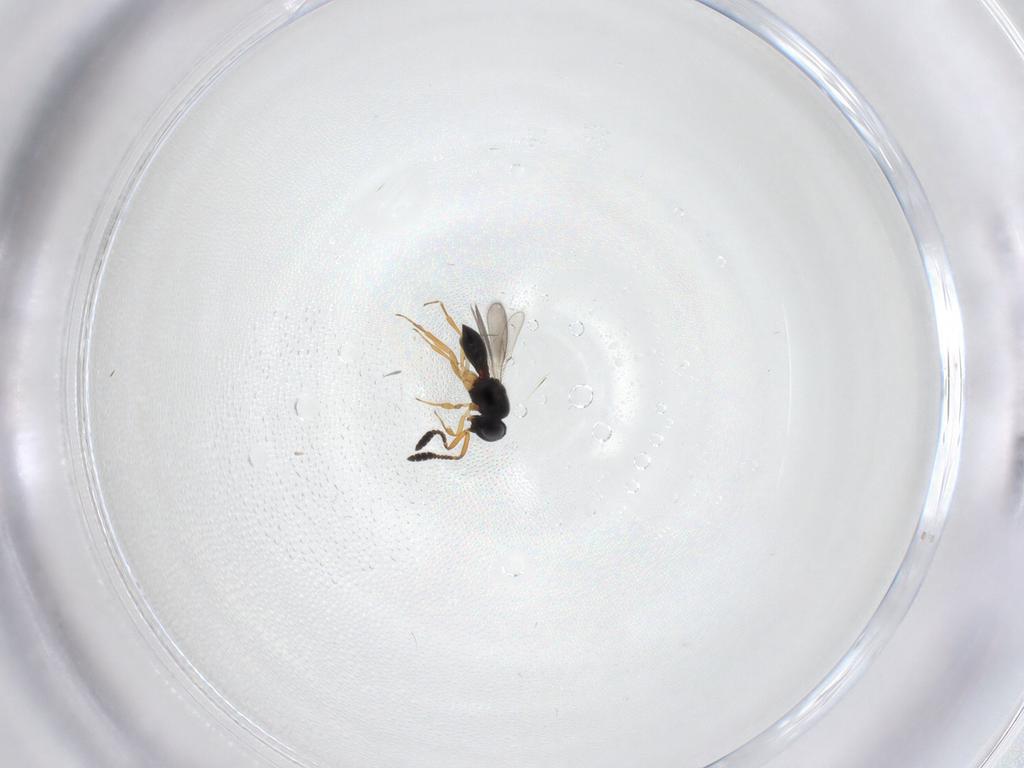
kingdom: Animalia
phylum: Arthropoda
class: Insecta
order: Hymenoptera
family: Scelionidae
